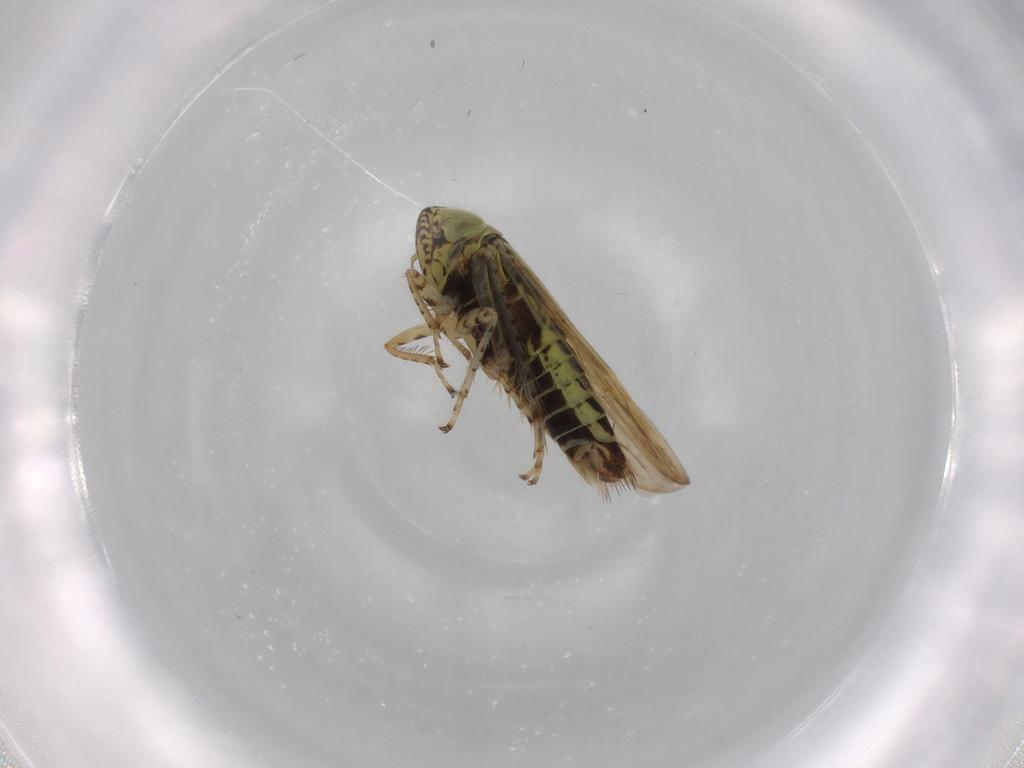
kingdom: Animalia
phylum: Arthropoda
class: Insecta
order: Hemiptera
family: Cicadellidae
